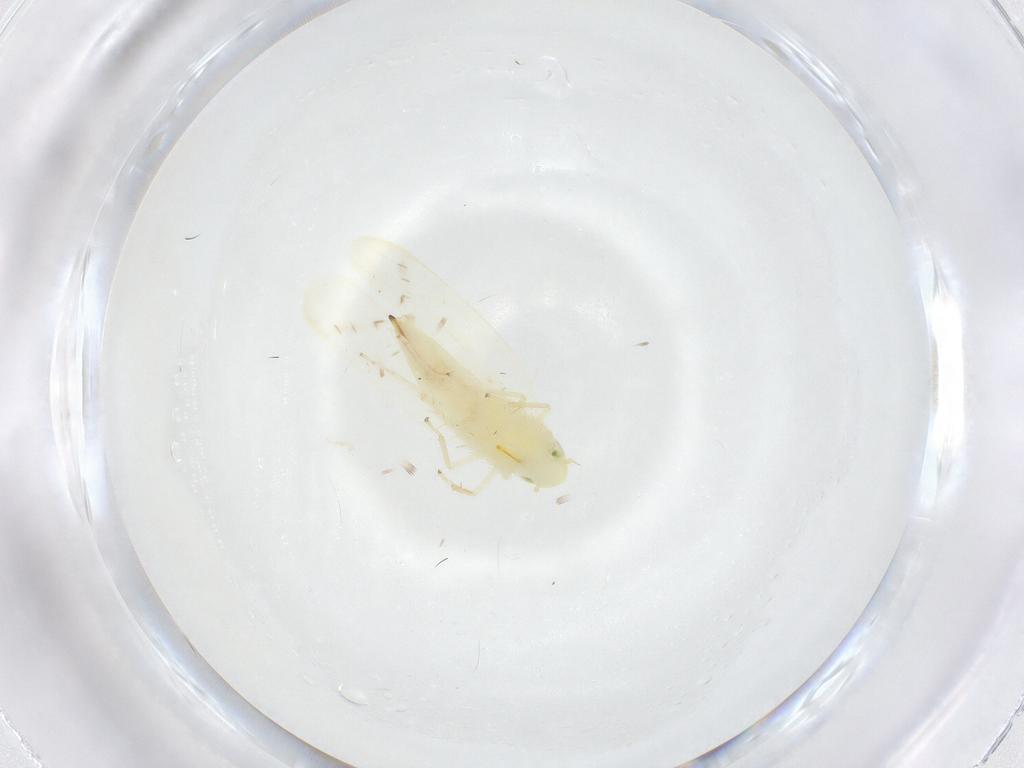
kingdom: Animalia
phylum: Arthropoda
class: Insecta
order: Hemiptera
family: Cicadellidae
